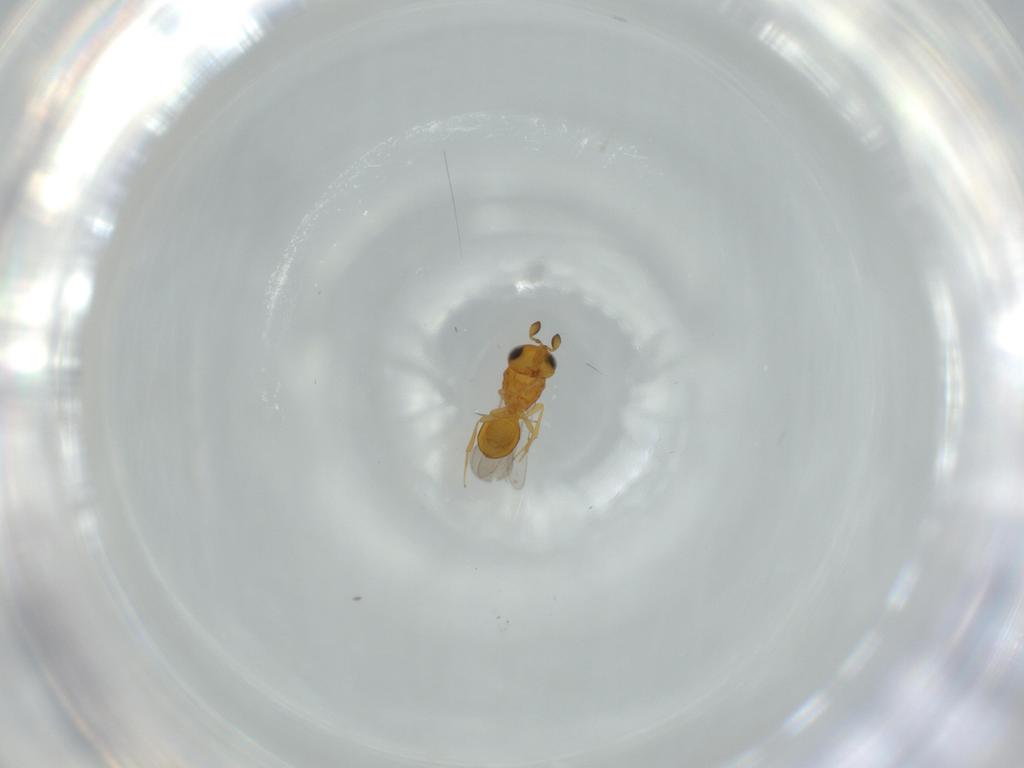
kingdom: Animalia
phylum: Arthropoda
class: Insecta
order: Hymenoptera
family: Scelionidae
